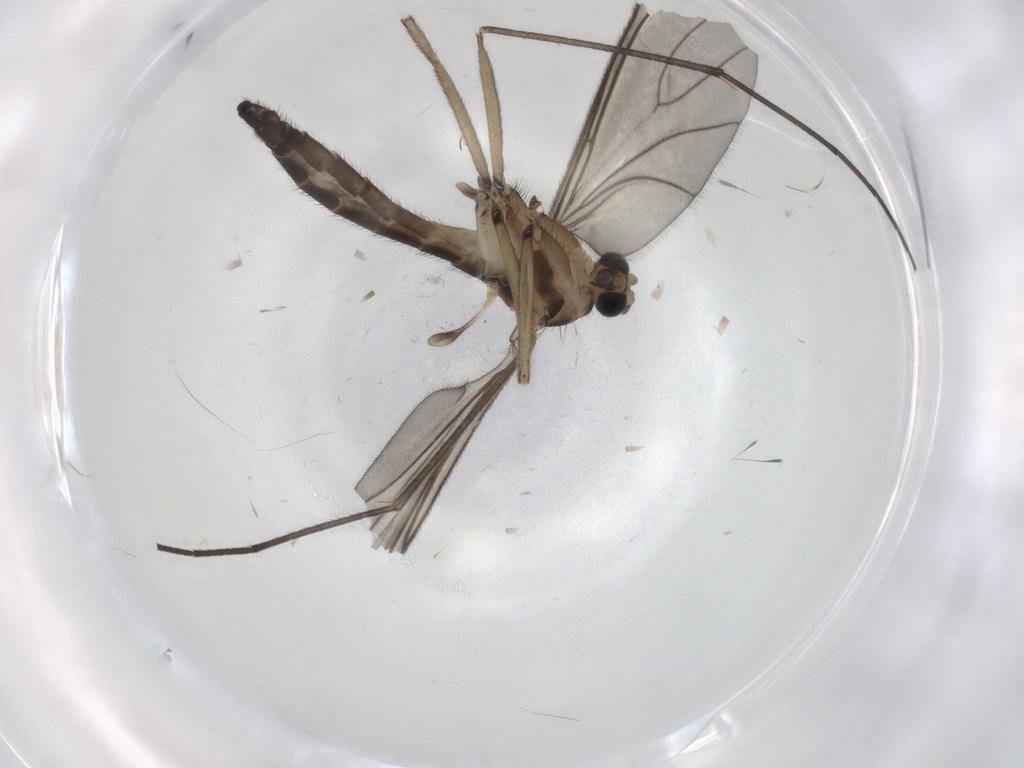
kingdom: Animalia
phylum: Arthropoda
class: Insecta
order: Diptera
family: Sciaridae
